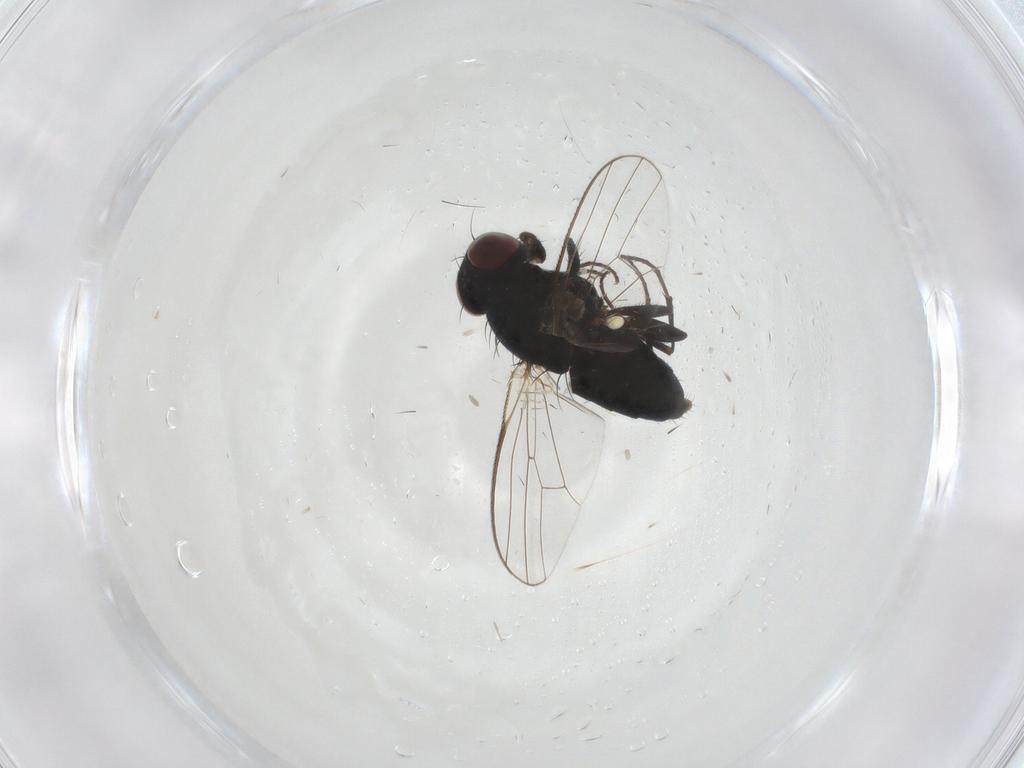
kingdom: Animalia
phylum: Arthropoda
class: Insecta
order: Diptera
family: Carnidae
